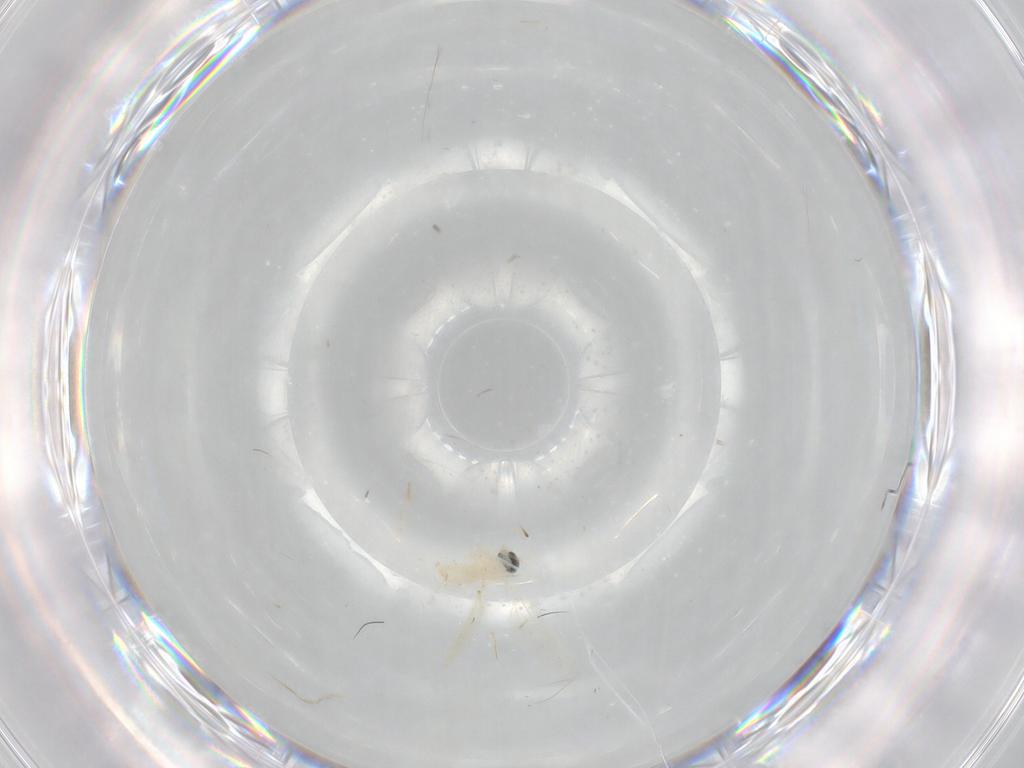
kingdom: Animalia
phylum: Arthropoda
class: Insecta
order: Diptera
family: Cecidomyiidae
